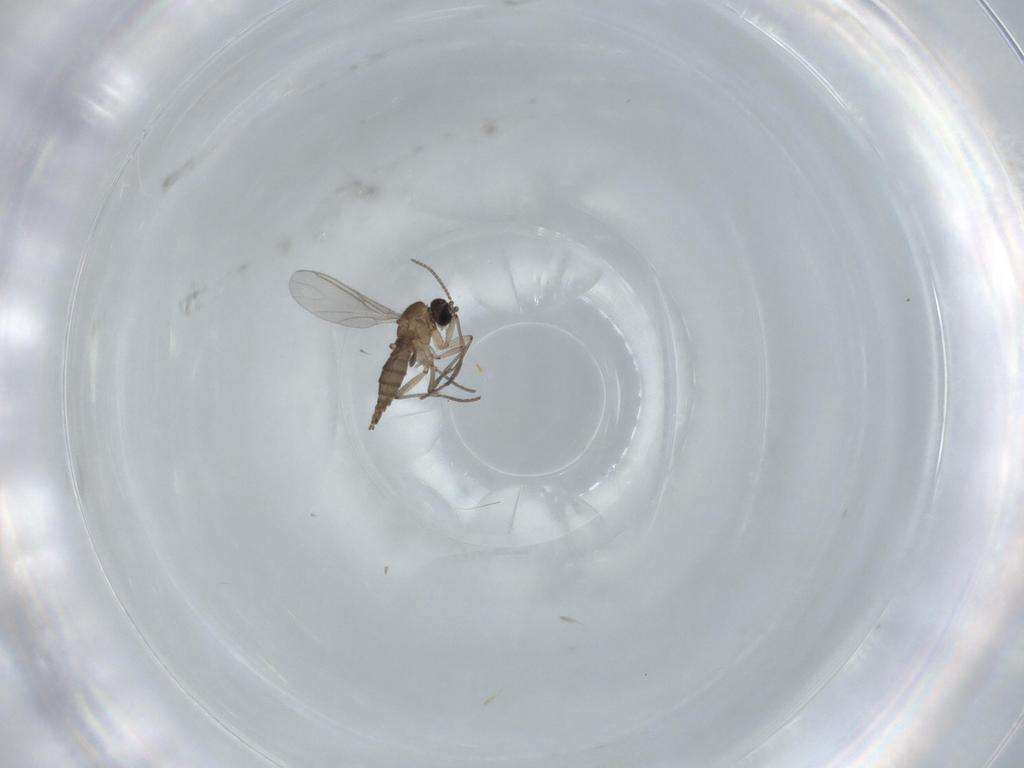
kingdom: Animalia
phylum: Arthropoda
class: Insecta
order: Diptera
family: Sciaridae
